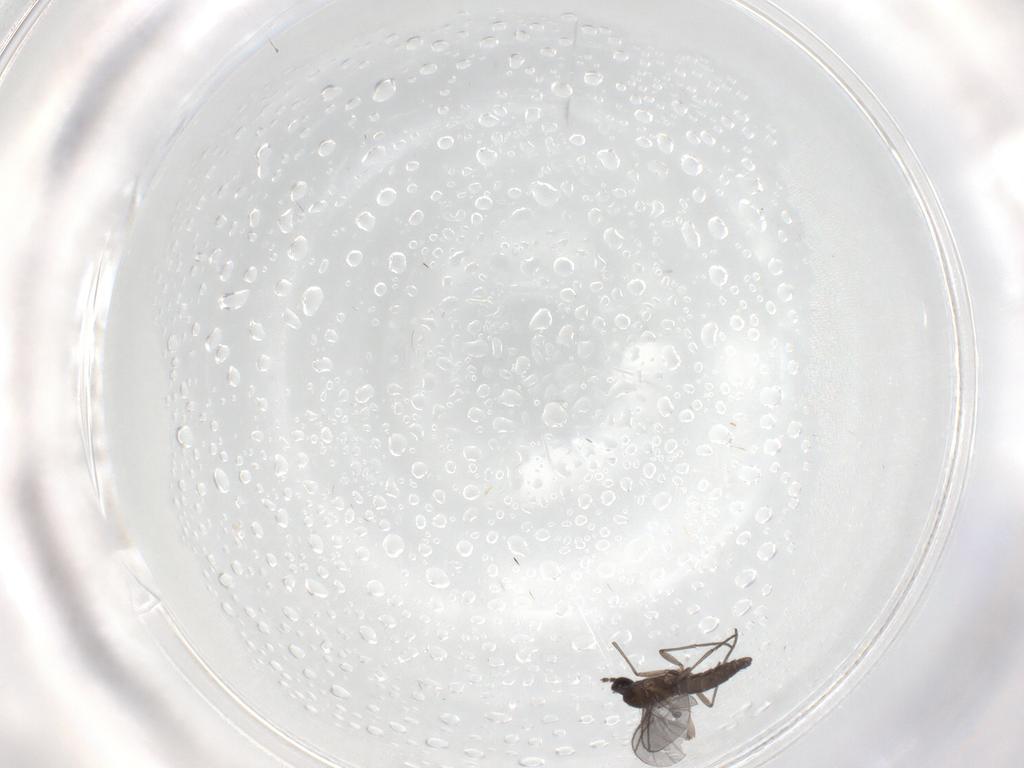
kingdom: Animalia
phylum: Arthropoda
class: Insecta
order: Diptera
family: Sciaridae
